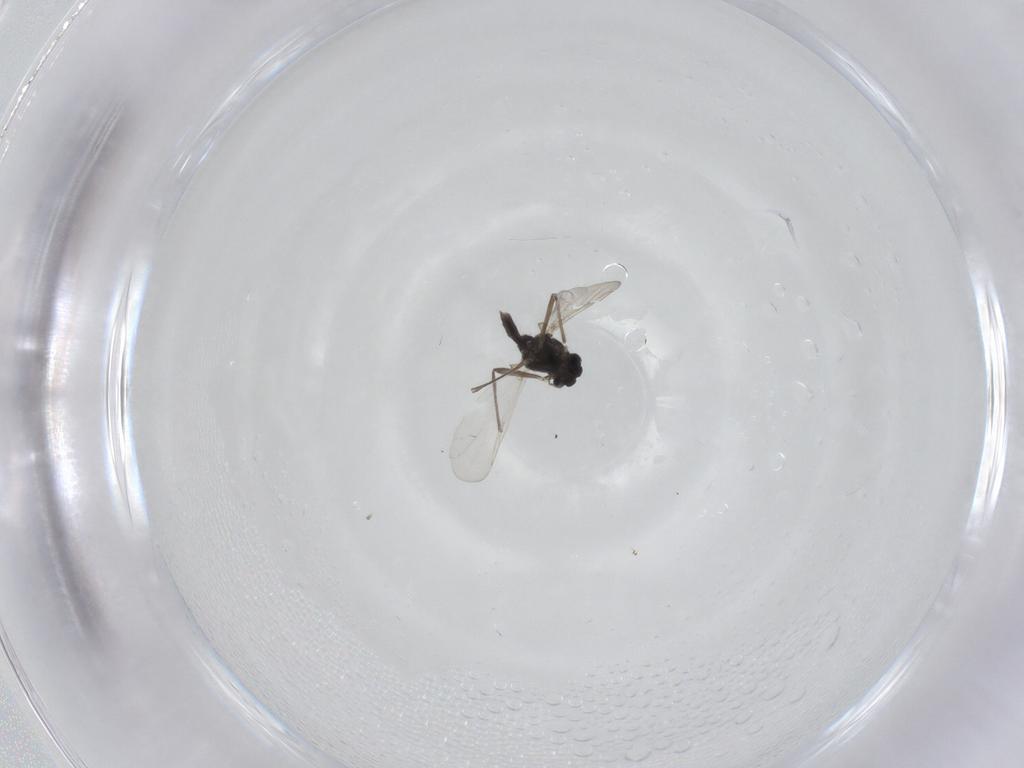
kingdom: Animalia
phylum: Arthropoda
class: Insecta
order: Diptera
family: Chironomidae
